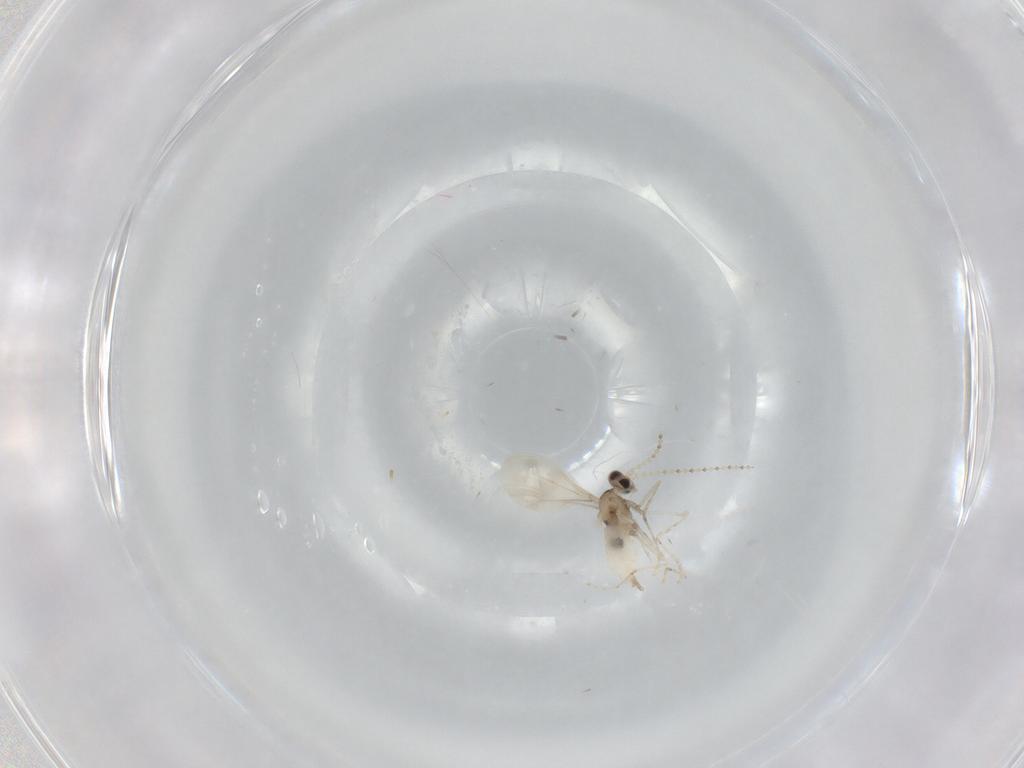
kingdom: Animalia
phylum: Arthropoda
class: Insecta
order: Diptera
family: Cecidomyiidae
